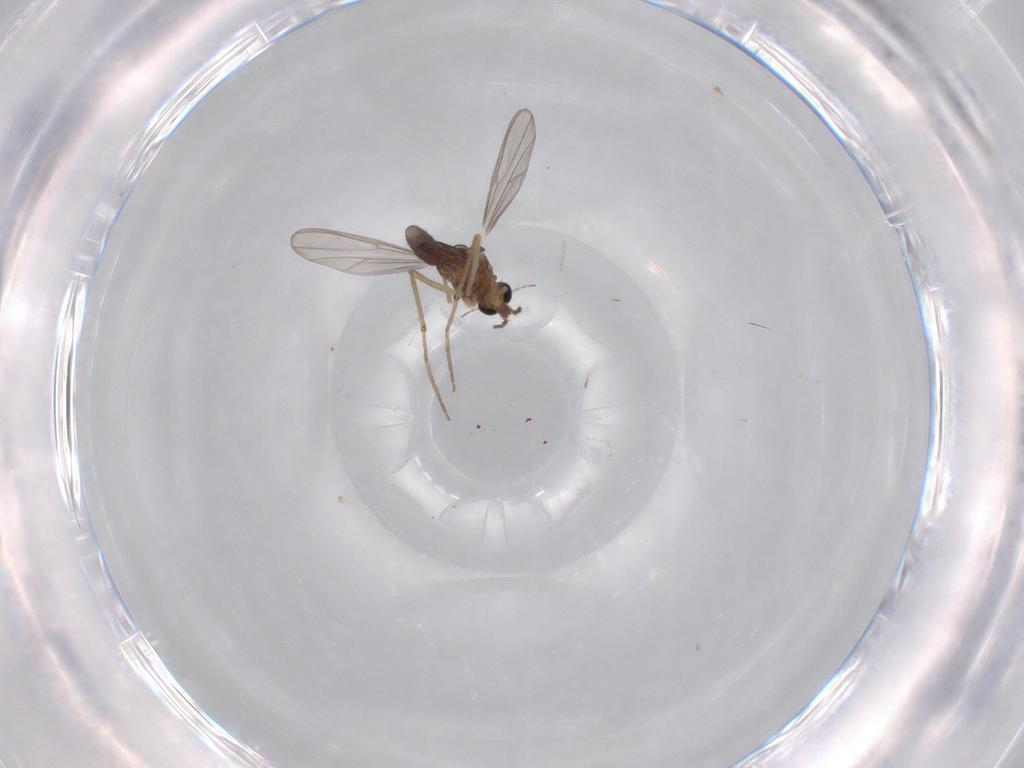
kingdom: Animalia
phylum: Arthropoda
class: Insecta
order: Diptera
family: Chironomidae
